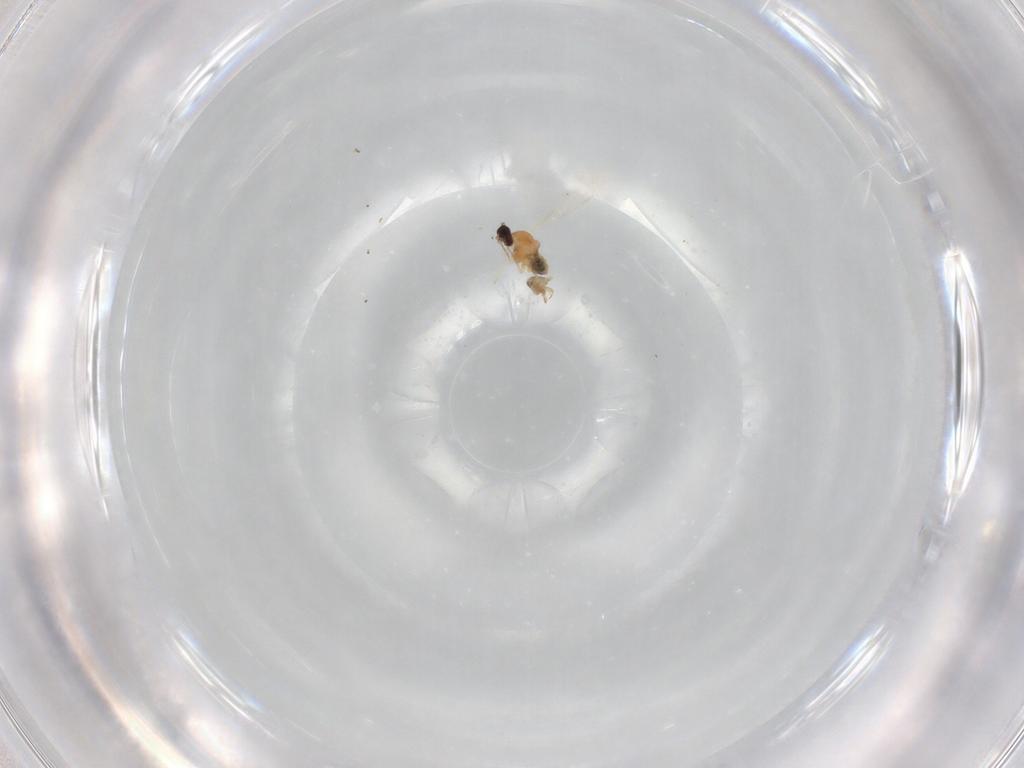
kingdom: Animalia
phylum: Arthropoda
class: Insecta
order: Diptera
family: Cecidomyiidae
